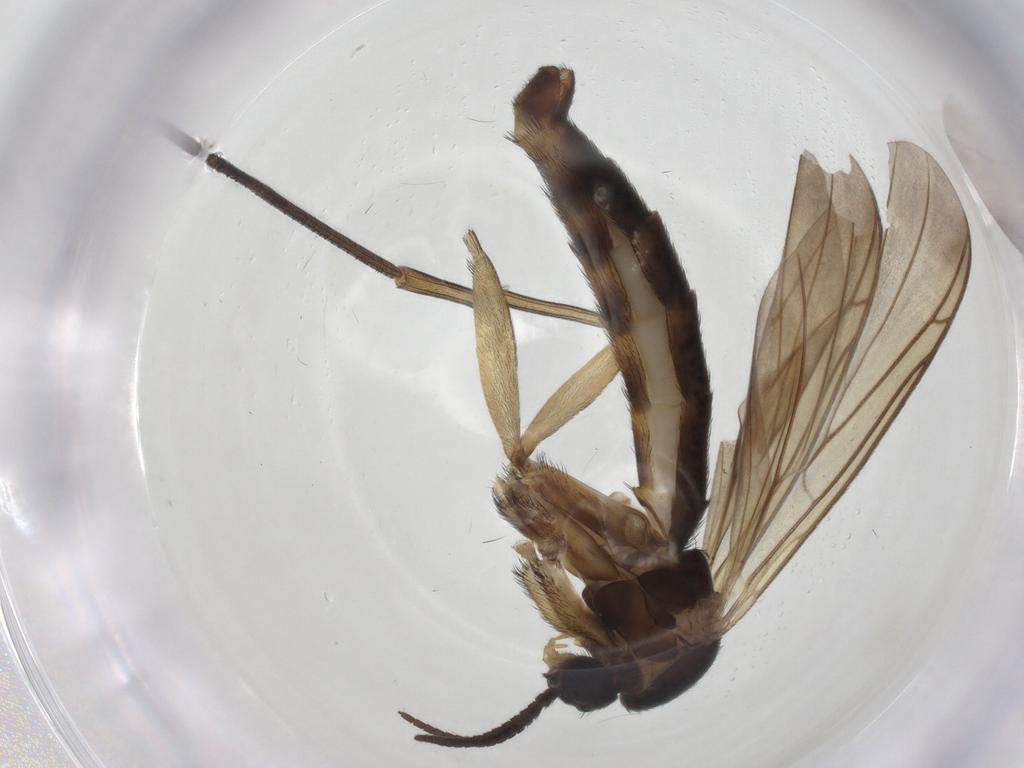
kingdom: Animalia
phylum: Arthropoda
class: Insecta
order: Diptera
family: Keroplatidae
